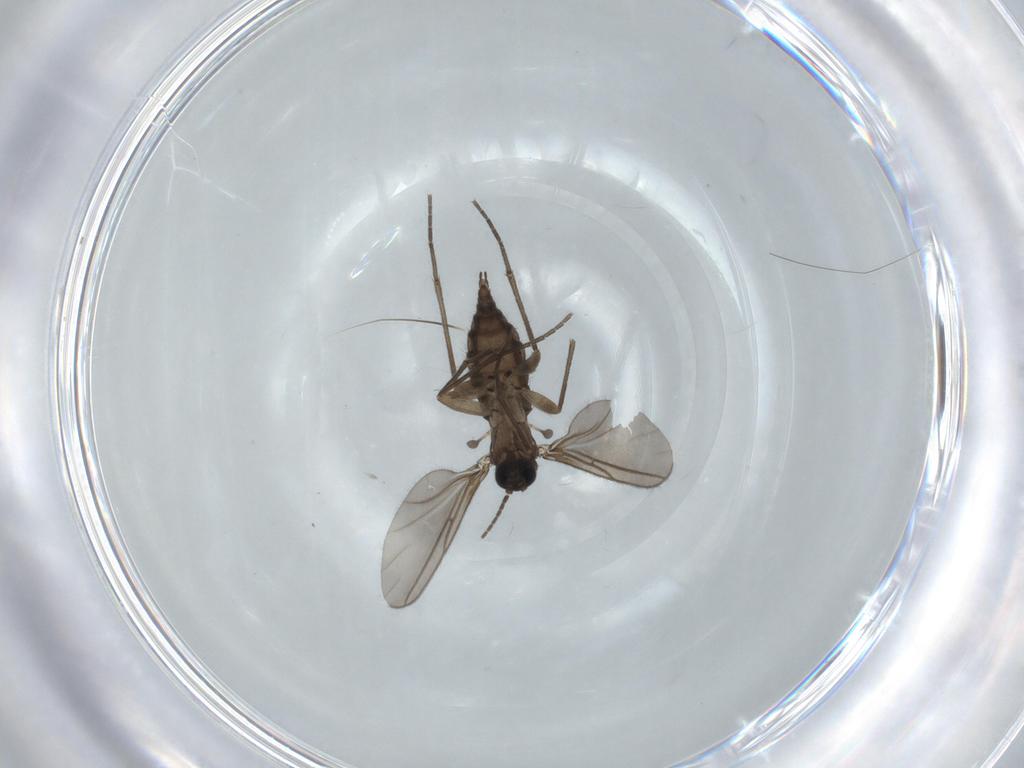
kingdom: Animalia
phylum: Arthropoda
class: Insecta
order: Diptera
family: Sciaridae
